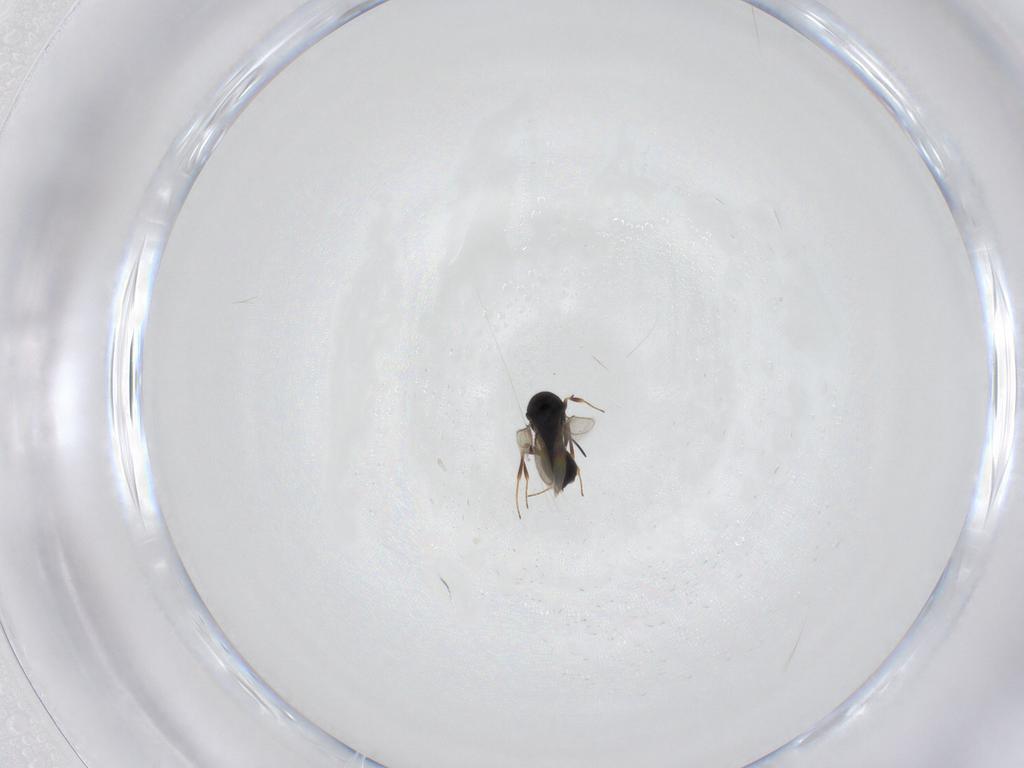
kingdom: Animalia
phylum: Arthropoda
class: Insecta
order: Hymenoptera
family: Scelionidae
